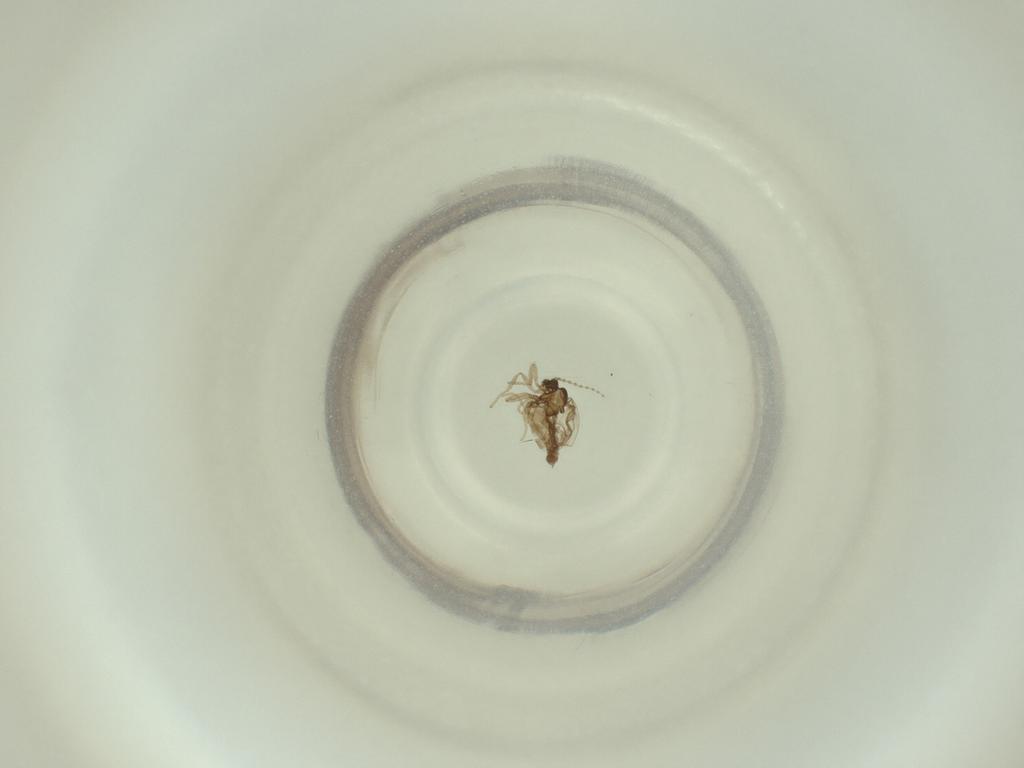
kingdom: Animalia
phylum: Arthropoda
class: Insecta
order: Diptera
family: Cecidomyiidae
